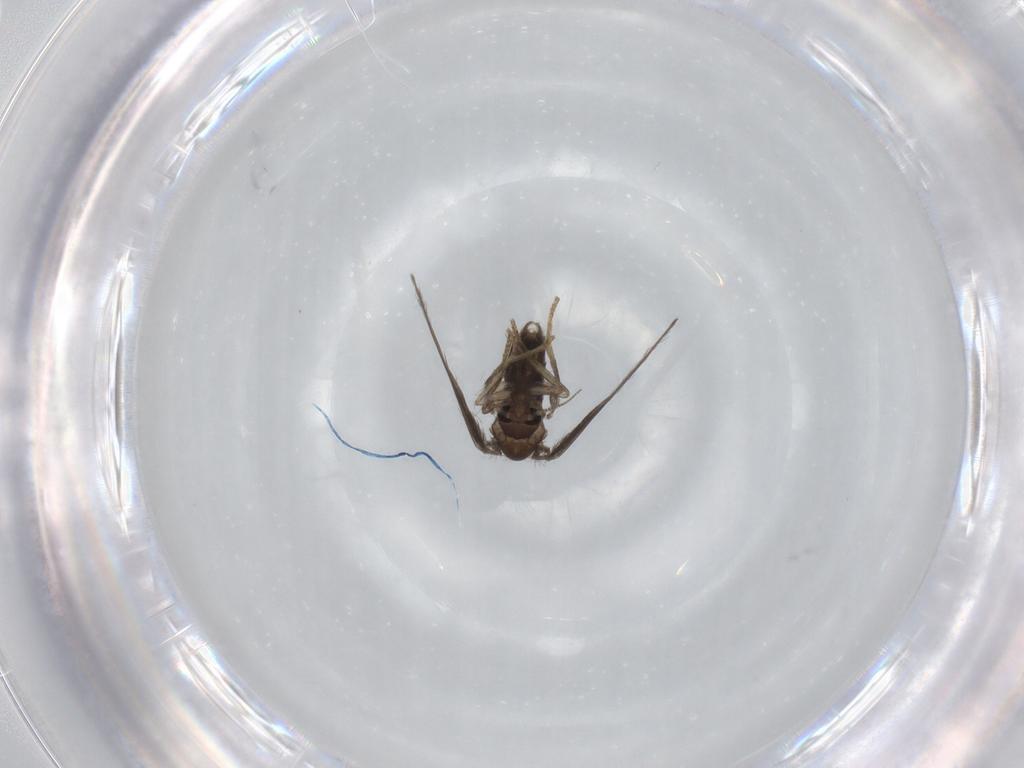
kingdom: Animalia
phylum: Arthropoda
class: Insecta
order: Diptera
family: Psychodidae
